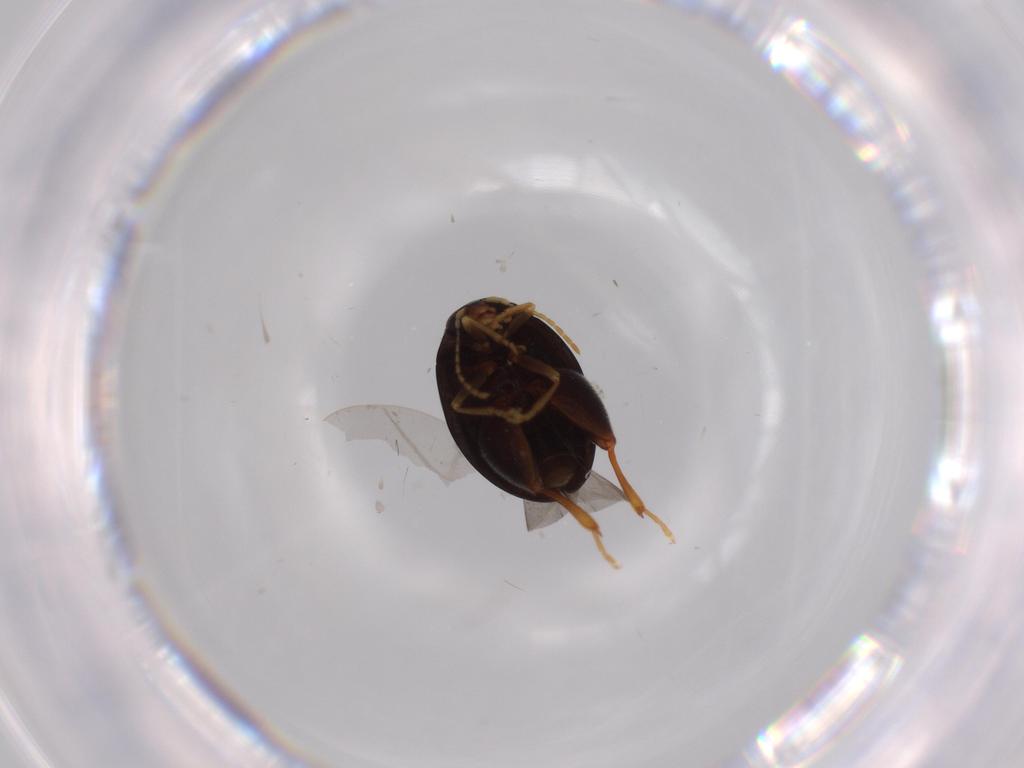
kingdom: Animalia
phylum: Arthropoda
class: Insecta
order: Coleoptera
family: Chrysomelidae
